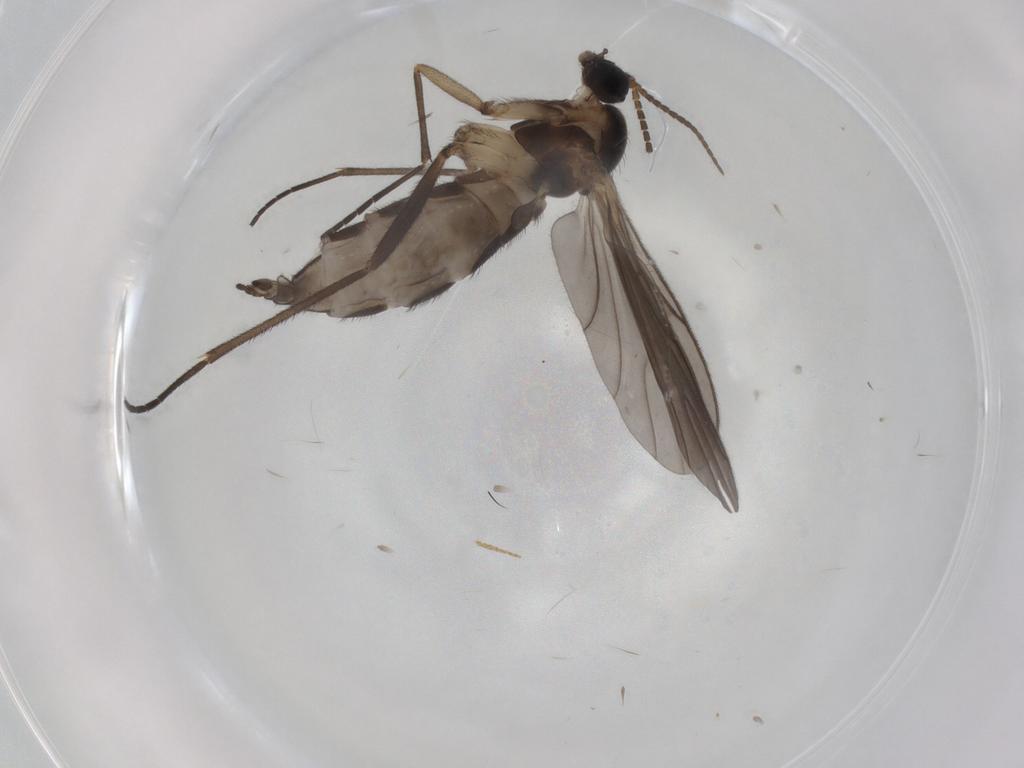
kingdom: Animalia
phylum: Arthropoda
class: Insecta
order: Diptera
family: Sciaridae
